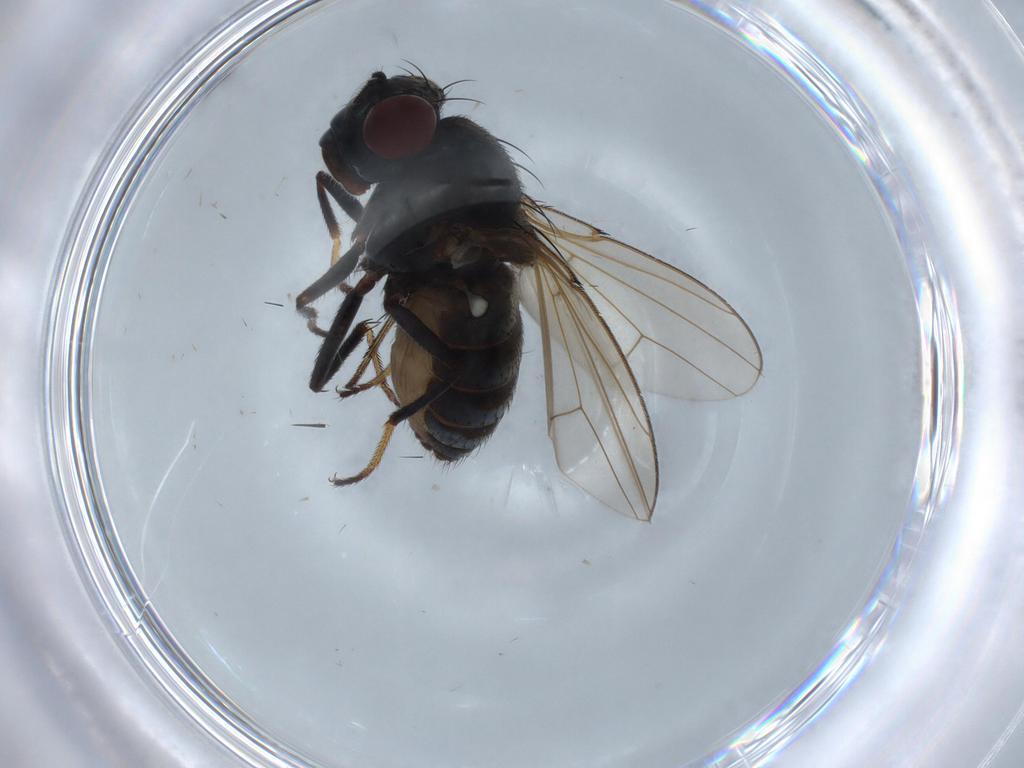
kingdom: Animalia
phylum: Arthropoda
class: Insecta
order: Diptera
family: Ephydridae
